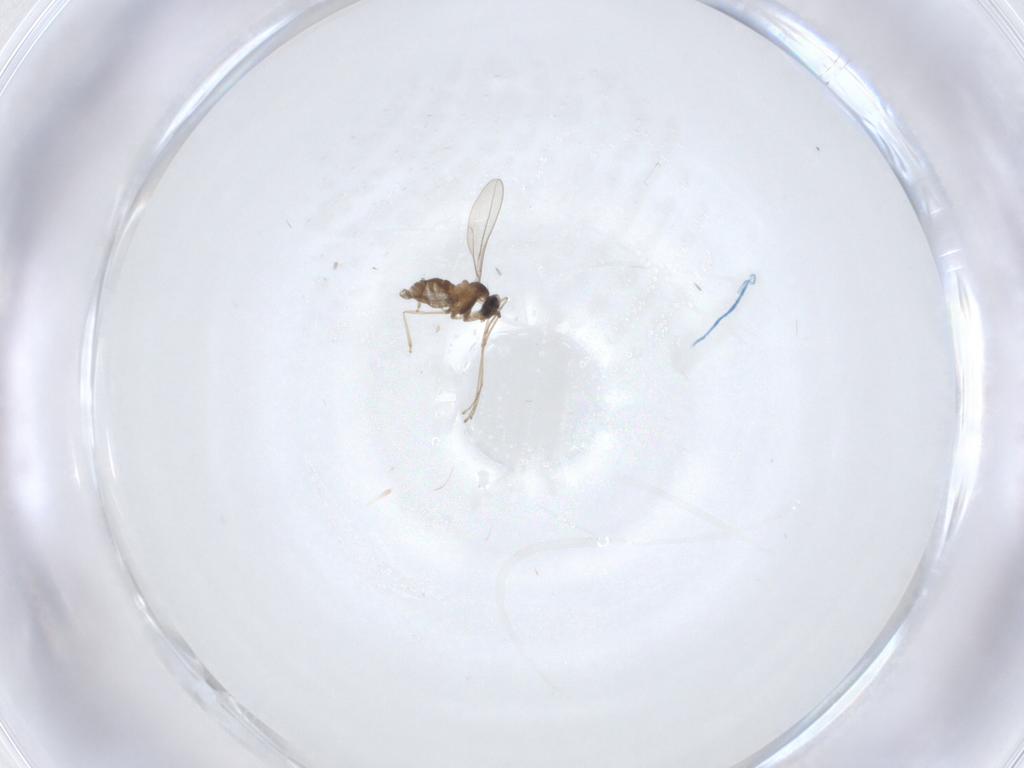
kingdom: Animalia
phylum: Arthropoda
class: Insecta
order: Diptera
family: Cecidomyiidae
